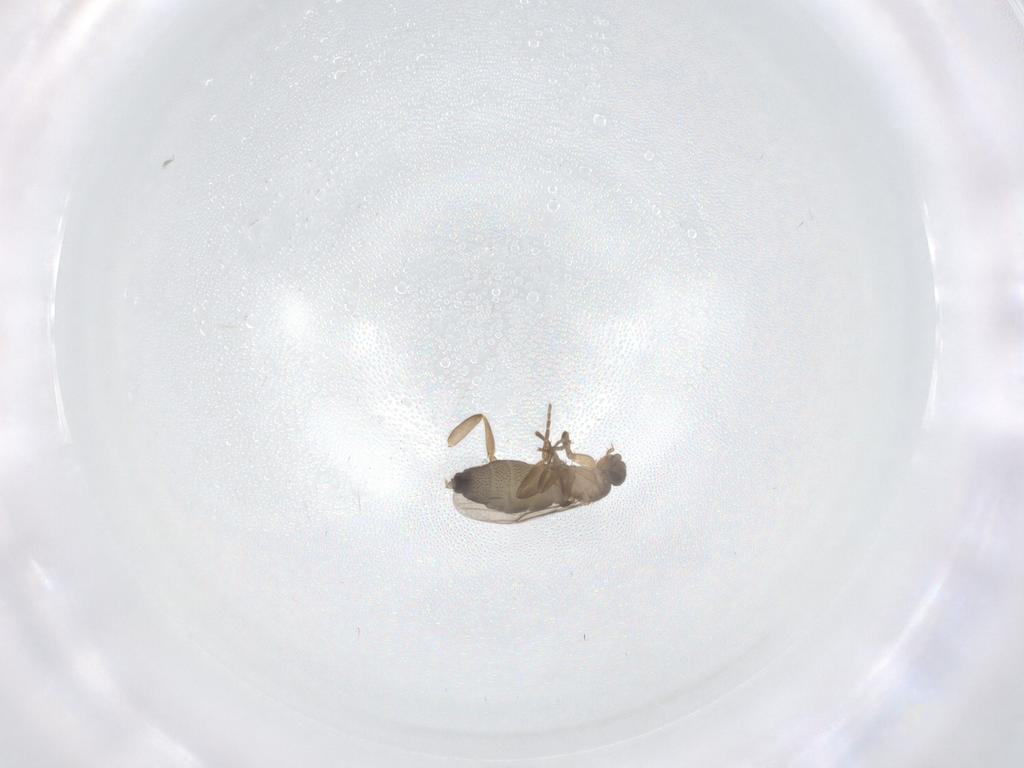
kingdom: Animalia
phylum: Arthropoda
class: Insecta
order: Diptera
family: Phoridae
